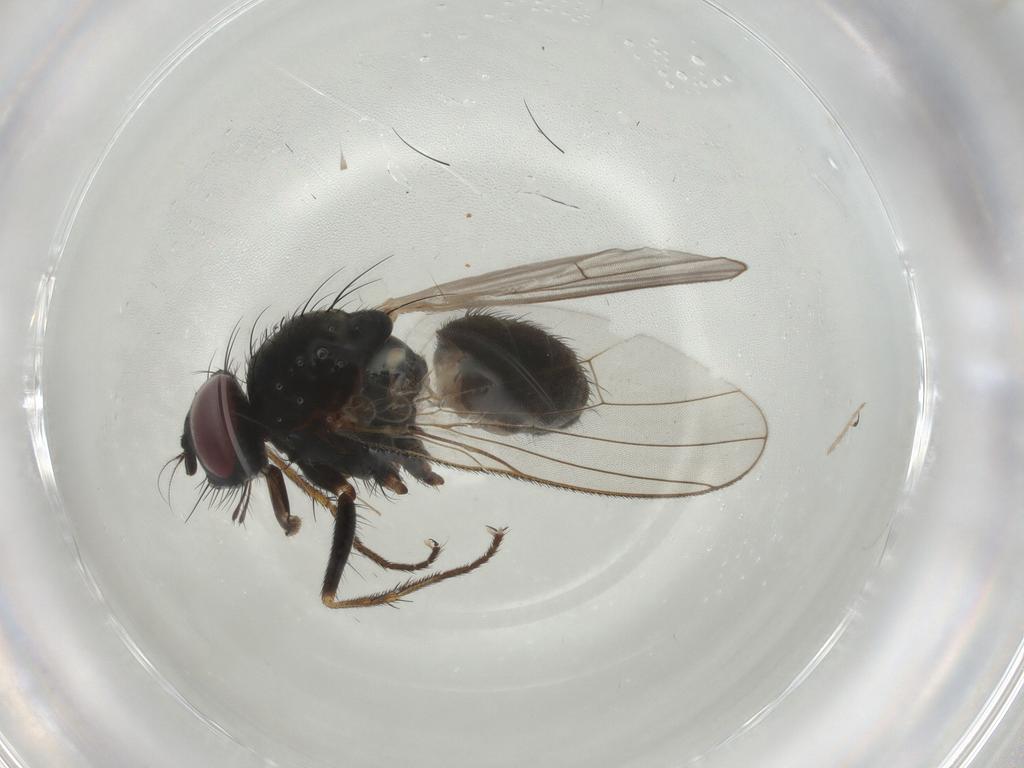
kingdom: Animalia
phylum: Arthropoda
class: Insecta
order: Diptera
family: Muscidae
